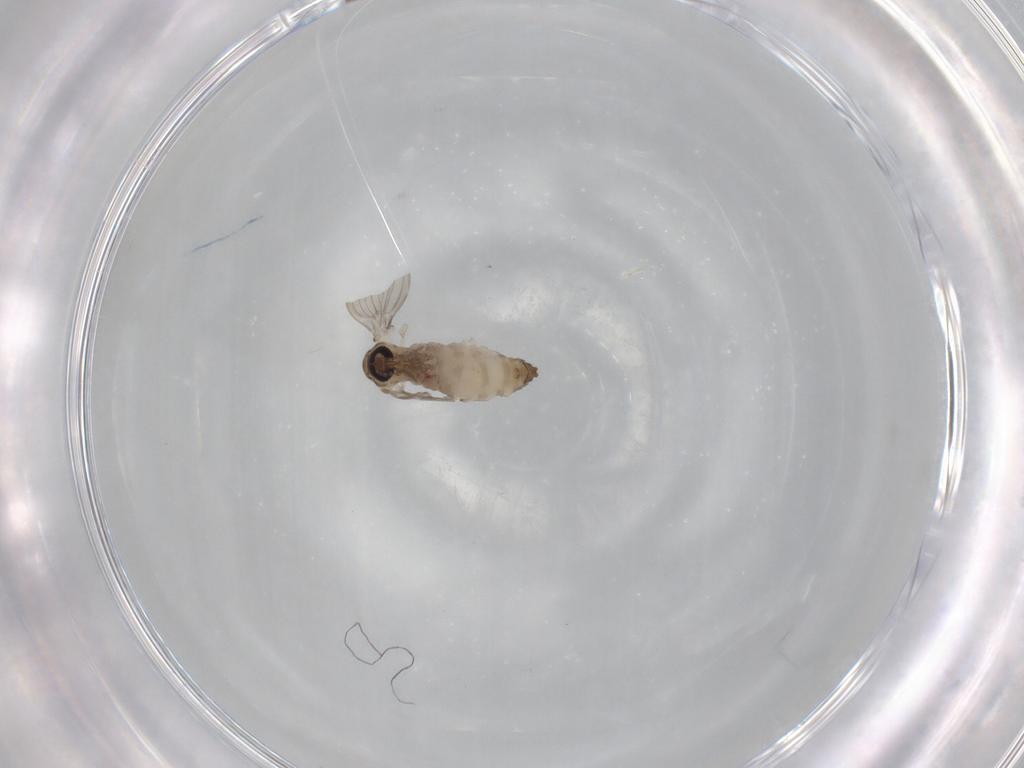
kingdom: Animalia
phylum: Arthropoda
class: Insecta
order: Diptera
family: Psychodidae
